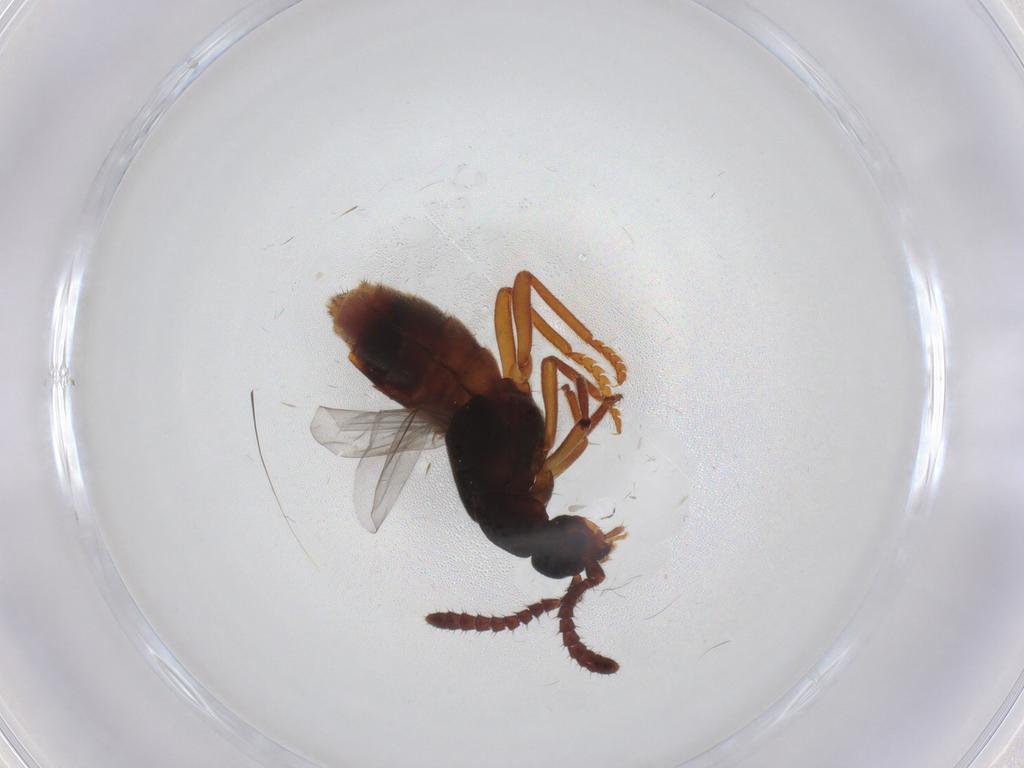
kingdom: Animalia
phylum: Arthropoda
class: Insecta
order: Coleoptera
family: Staphylinidae
